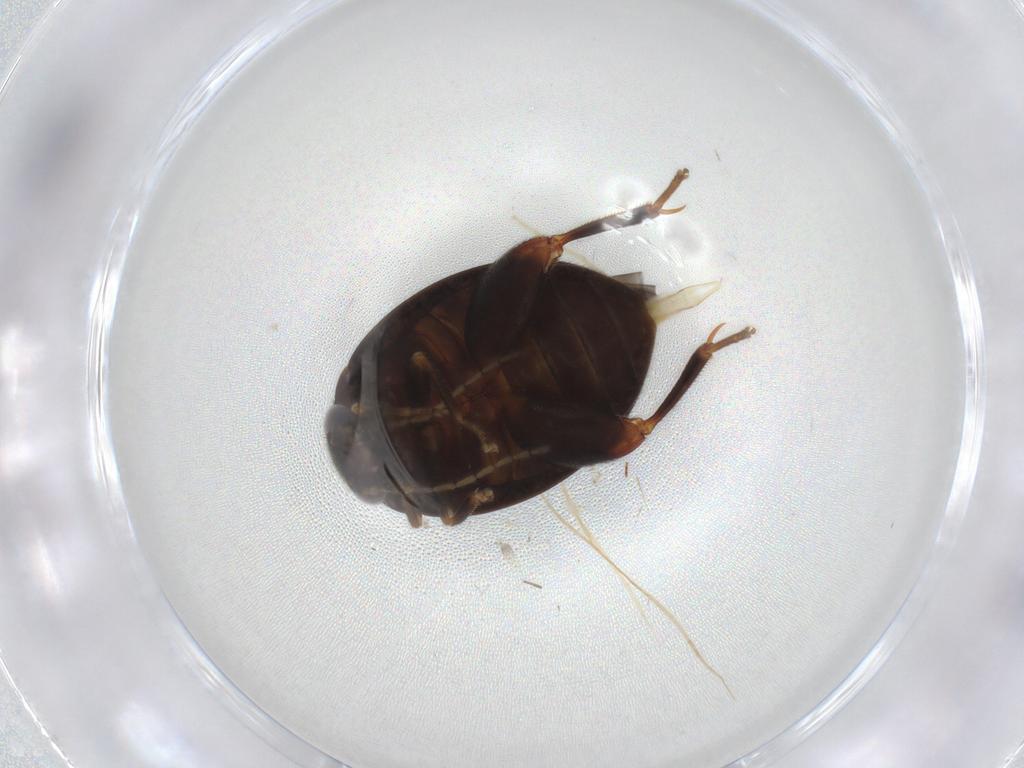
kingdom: Animalia
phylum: Arthropoda
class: Insecta
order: Coleoptera
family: Scirtidae
